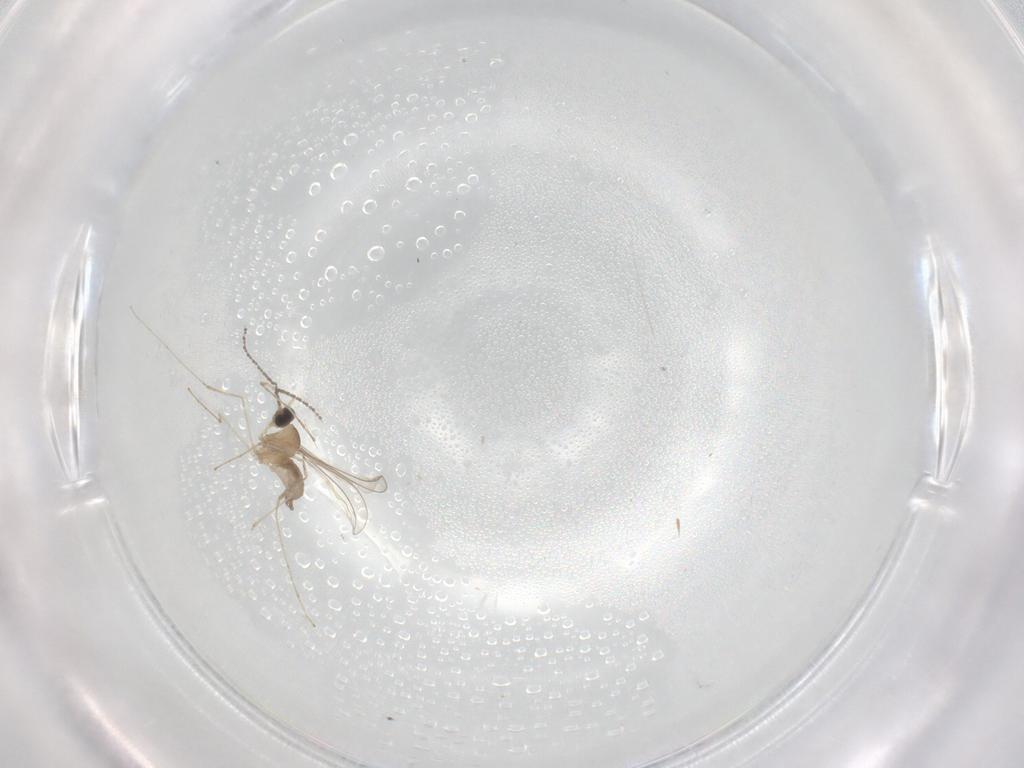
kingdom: Animalia
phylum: Arthropoda
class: Insecta
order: Diptera
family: Cecidomyiidae
